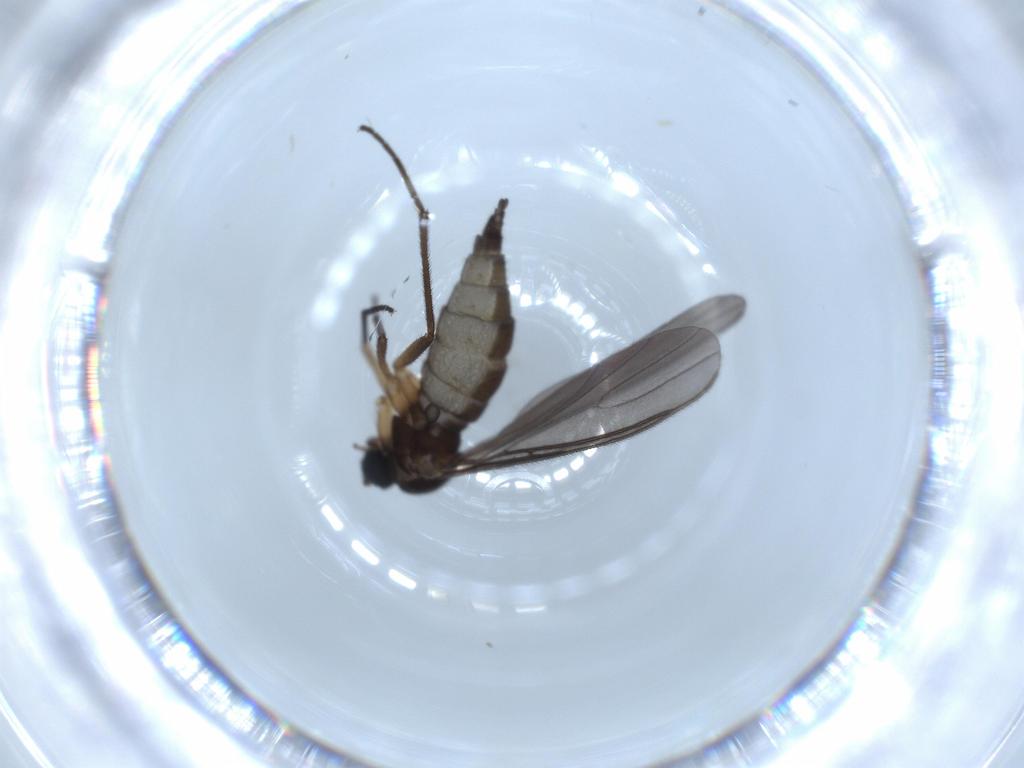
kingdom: Animalia
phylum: Arthropoda
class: Insecta
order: Diptera
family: Sciaridae
